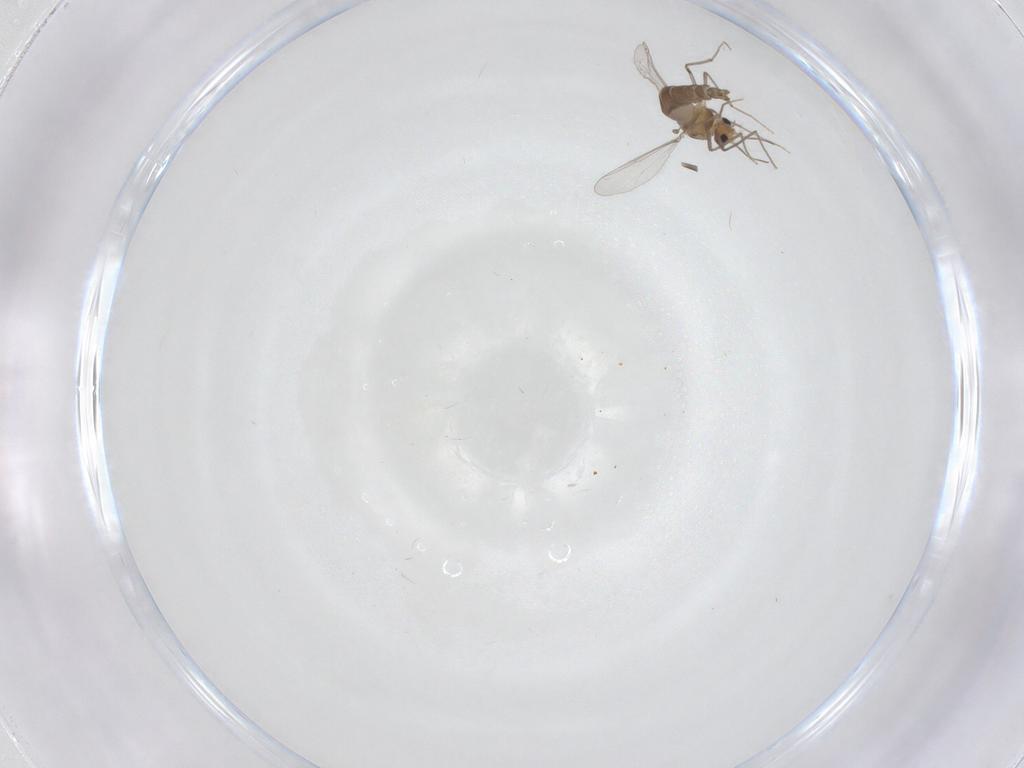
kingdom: Animalia
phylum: Arthropoda
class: Insecta
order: Diptera
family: Chironomidae
